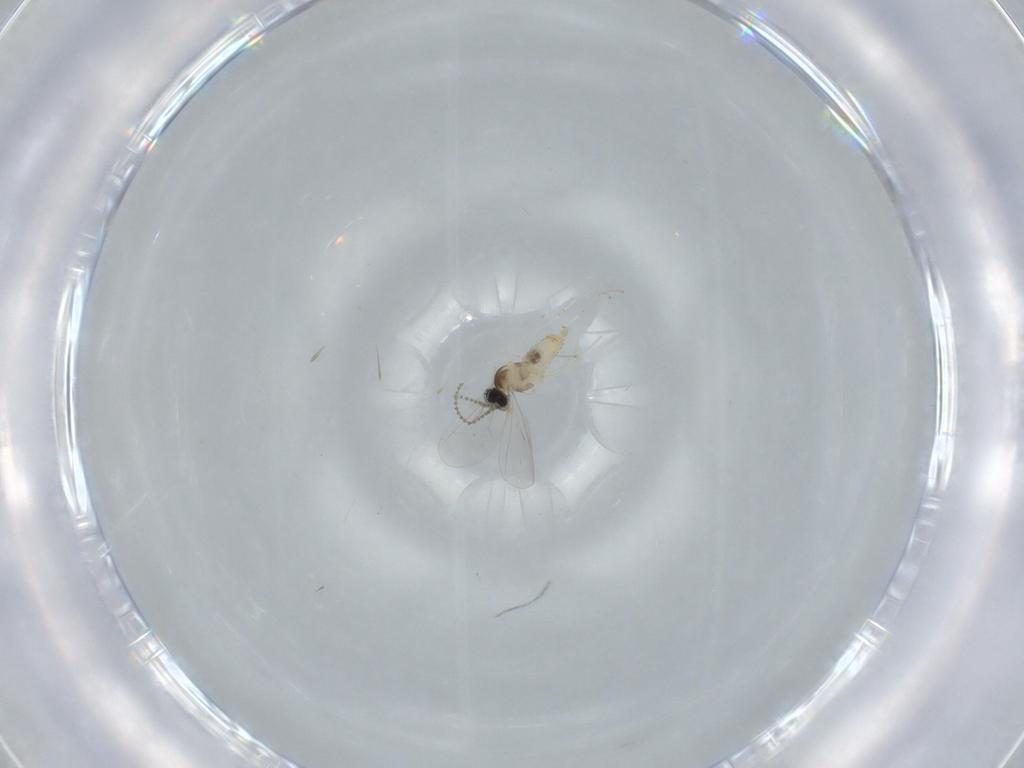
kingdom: Animalia
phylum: Arthropoda
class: Insecta
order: Diptera
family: Cecidomyiidae
